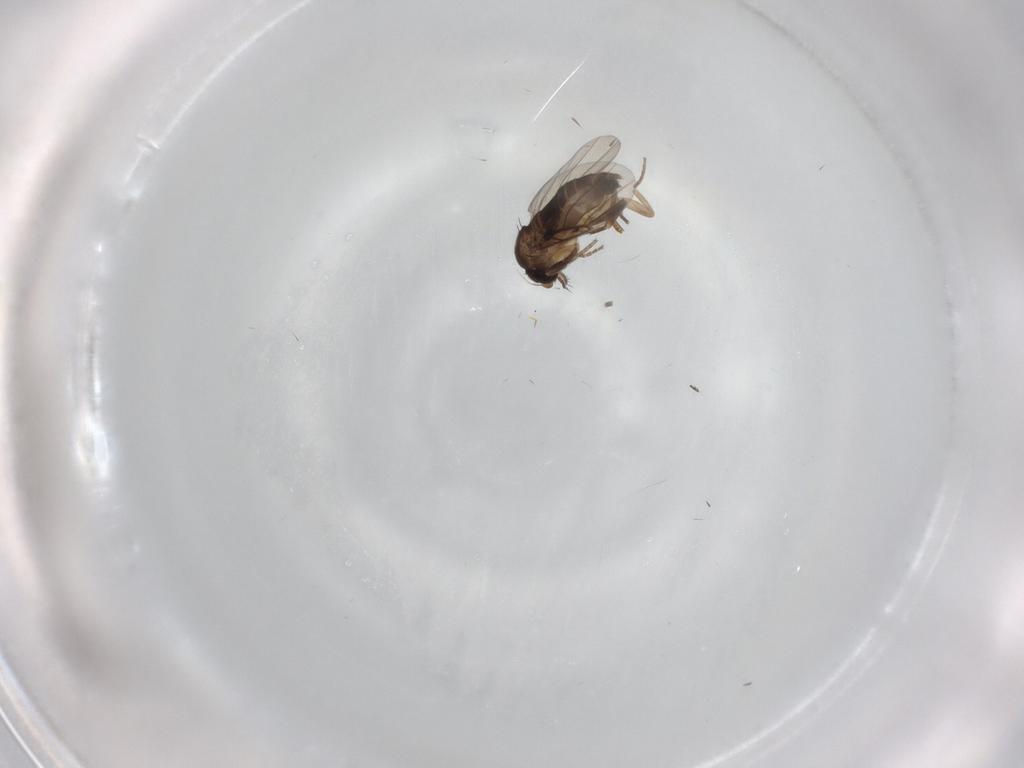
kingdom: Animalia
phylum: Arthropoda
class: Insecta
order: Diptera
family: Phoridae
